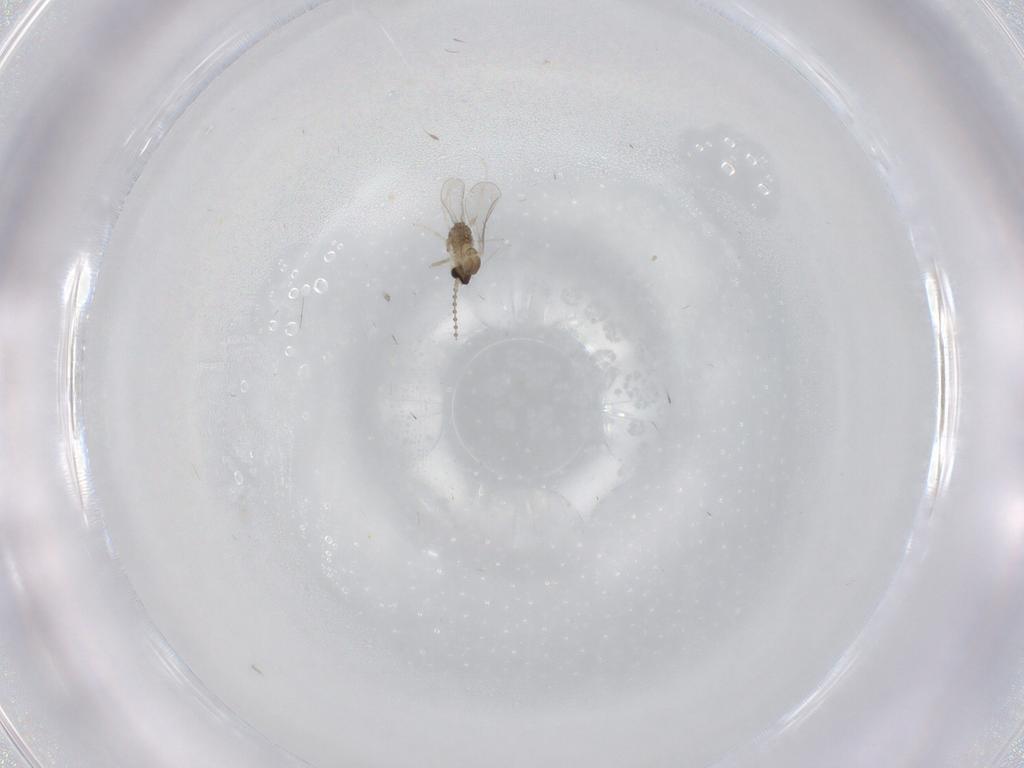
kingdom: Animalia
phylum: Arthropoda
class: Insecta
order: Diptera
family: Cecidomyiidae
